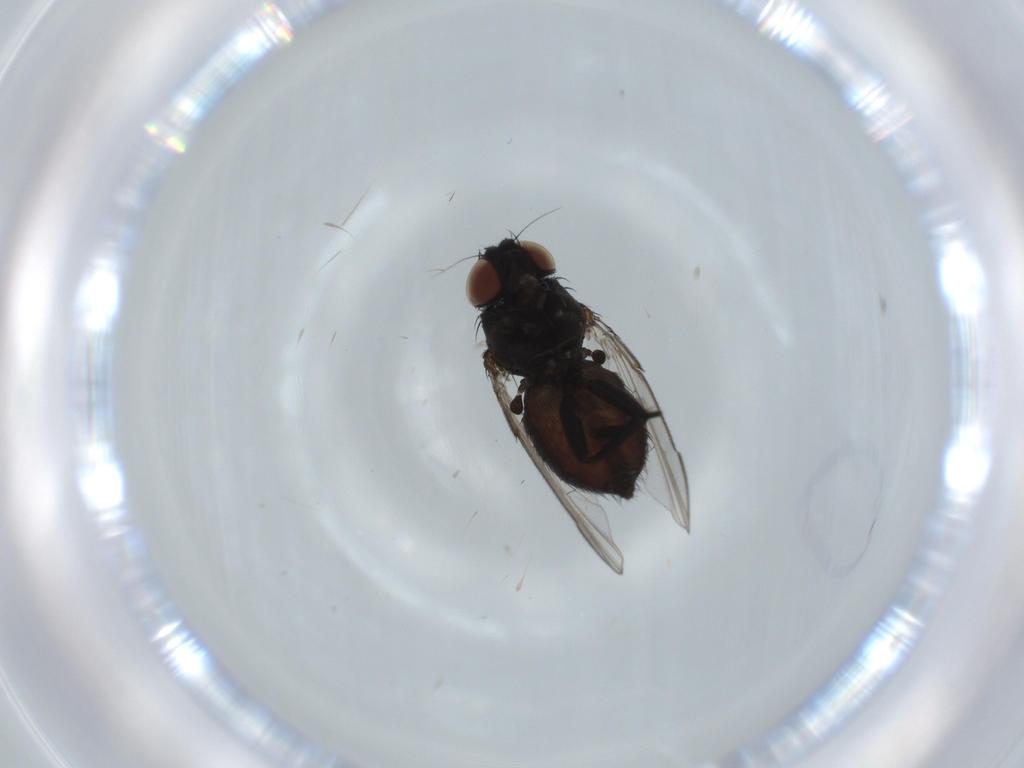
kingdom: Animalia
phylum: Arthropoda
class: Insecta
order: Diptera
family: Milichiidae
